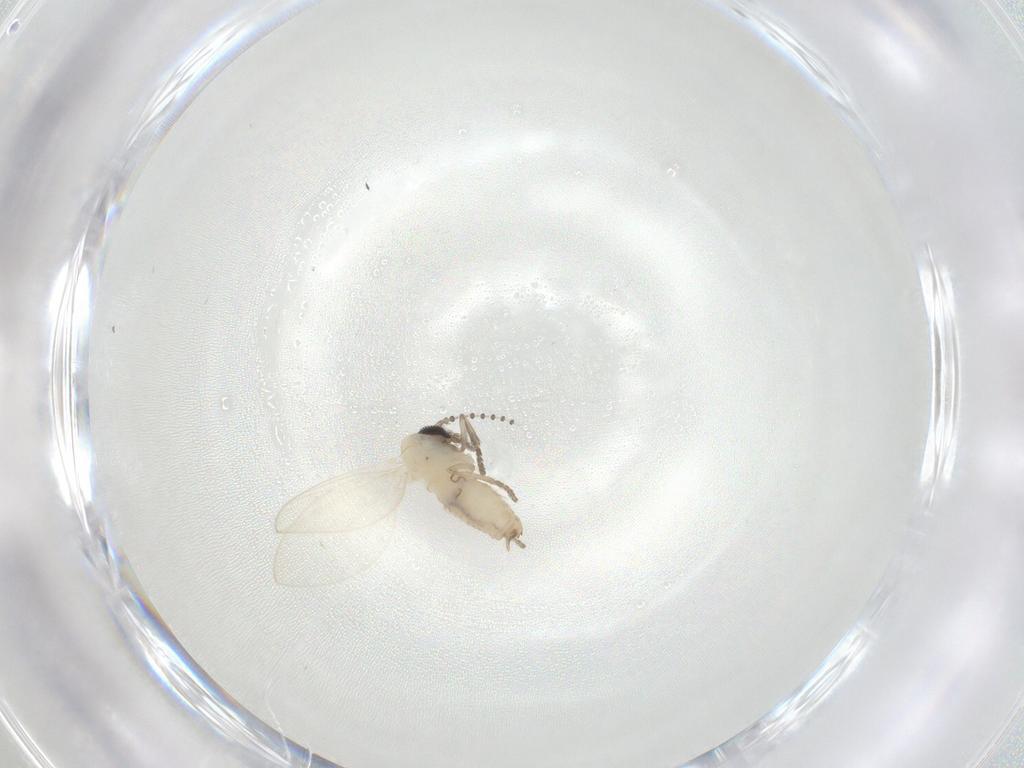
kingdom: Animalia
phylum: Arthropoda
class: Insecta
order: Diptera
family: Psychodidae
